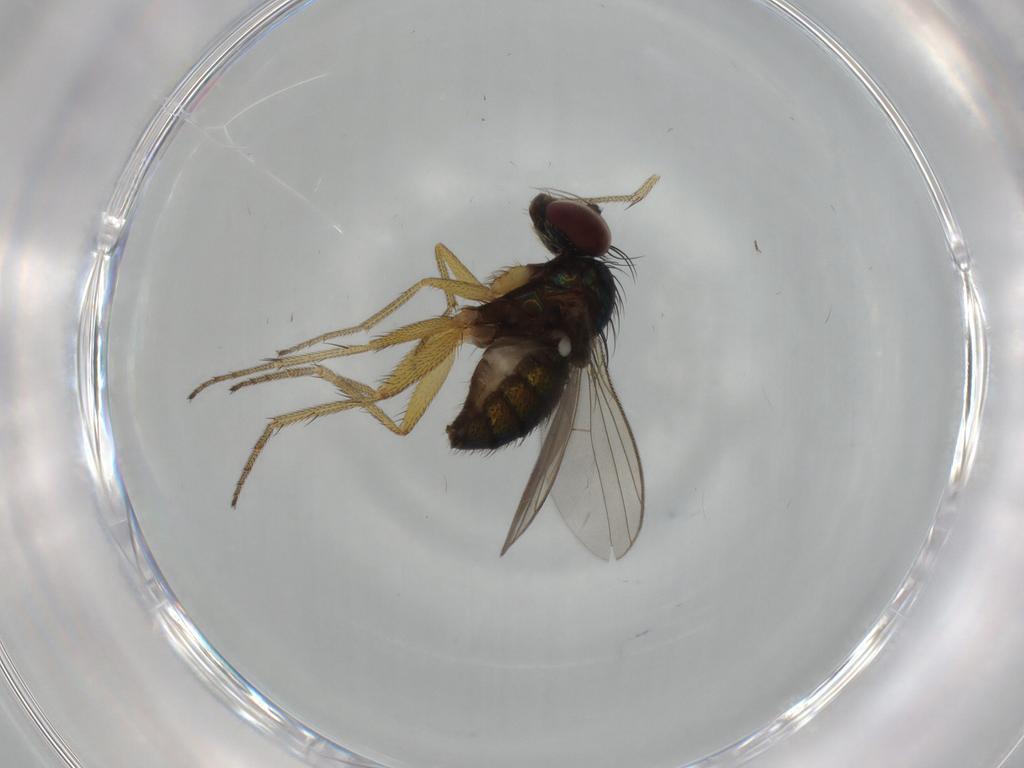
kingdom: Animalia
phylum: Arthropoda
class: Insecta
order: Diptera
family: Dolichopodidae
